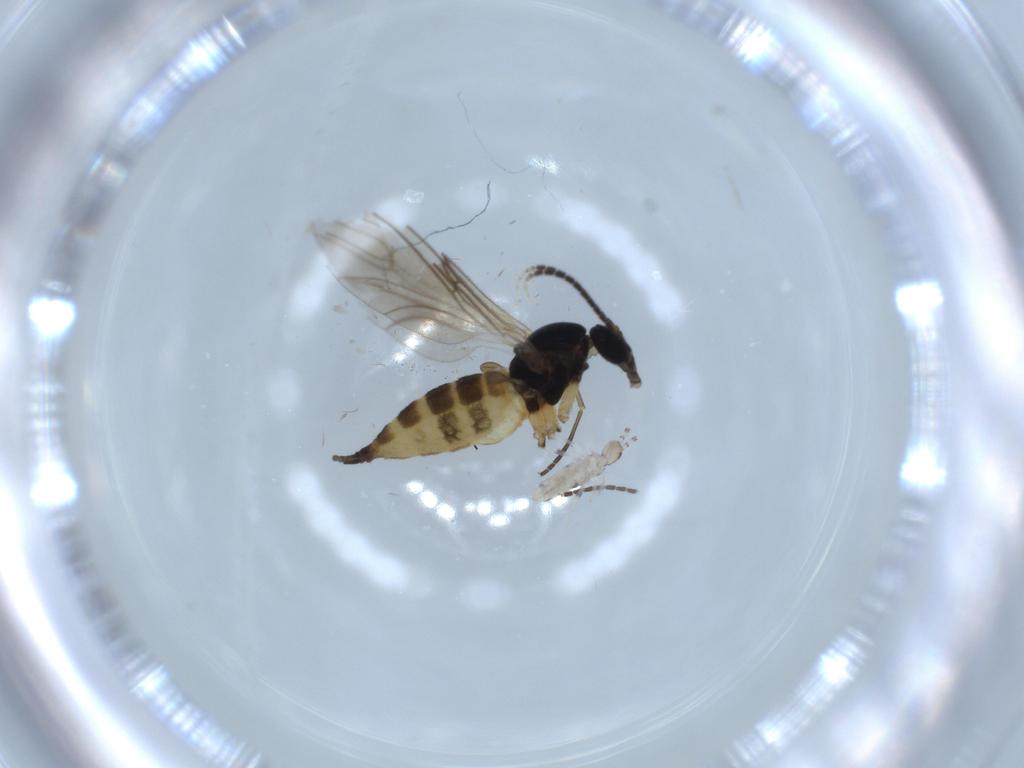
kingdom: Animalia
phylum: Arthropoda
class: Insecta
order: Diptera
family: Sciaridae
